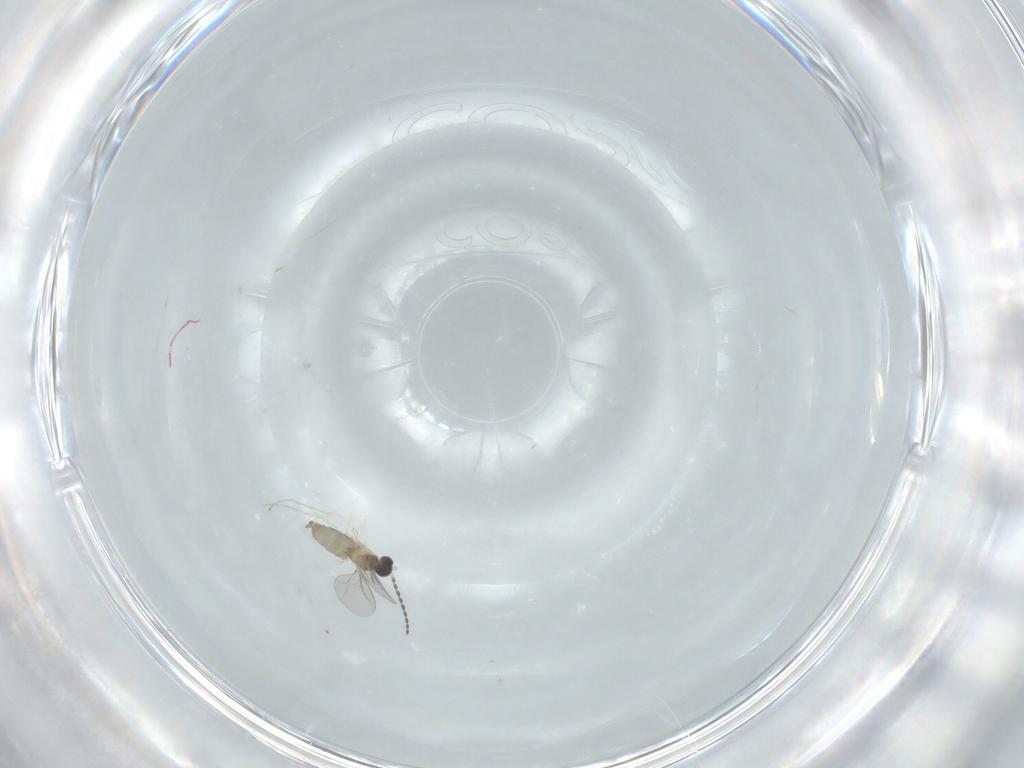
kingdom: Animalia
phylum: Arthropoda
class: Insecta
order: Diptera
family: Cecidomyiidae
